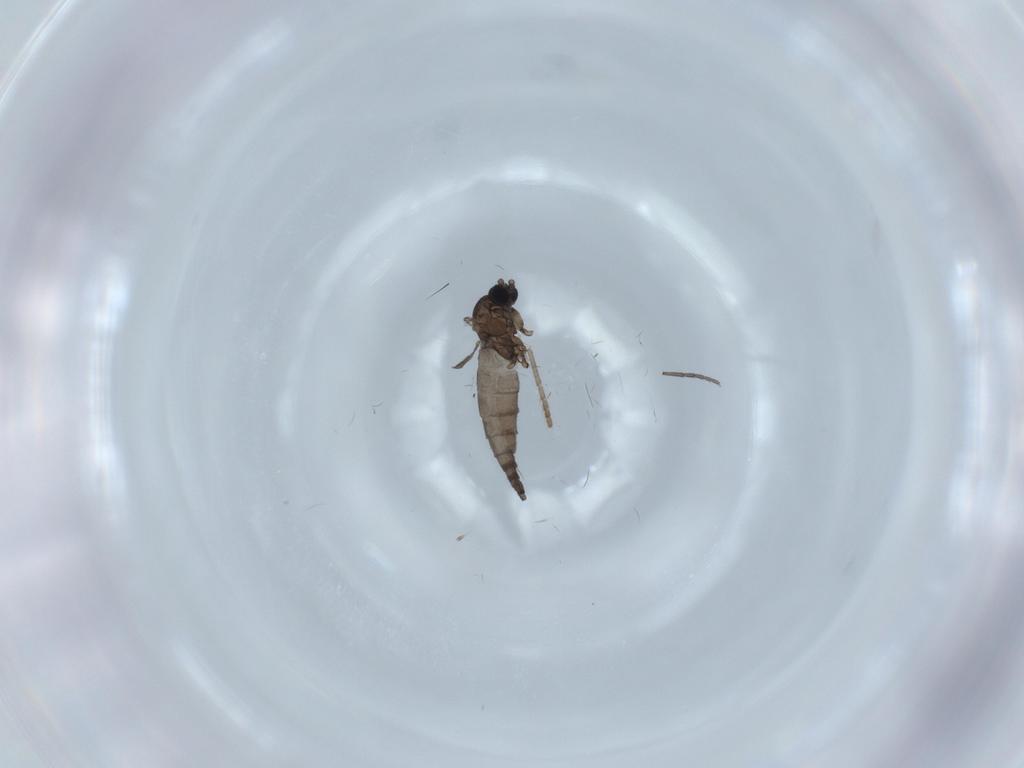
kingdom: Animalia
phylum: Arthropoda
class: Insecta
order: Diptera
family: Sciaridae
